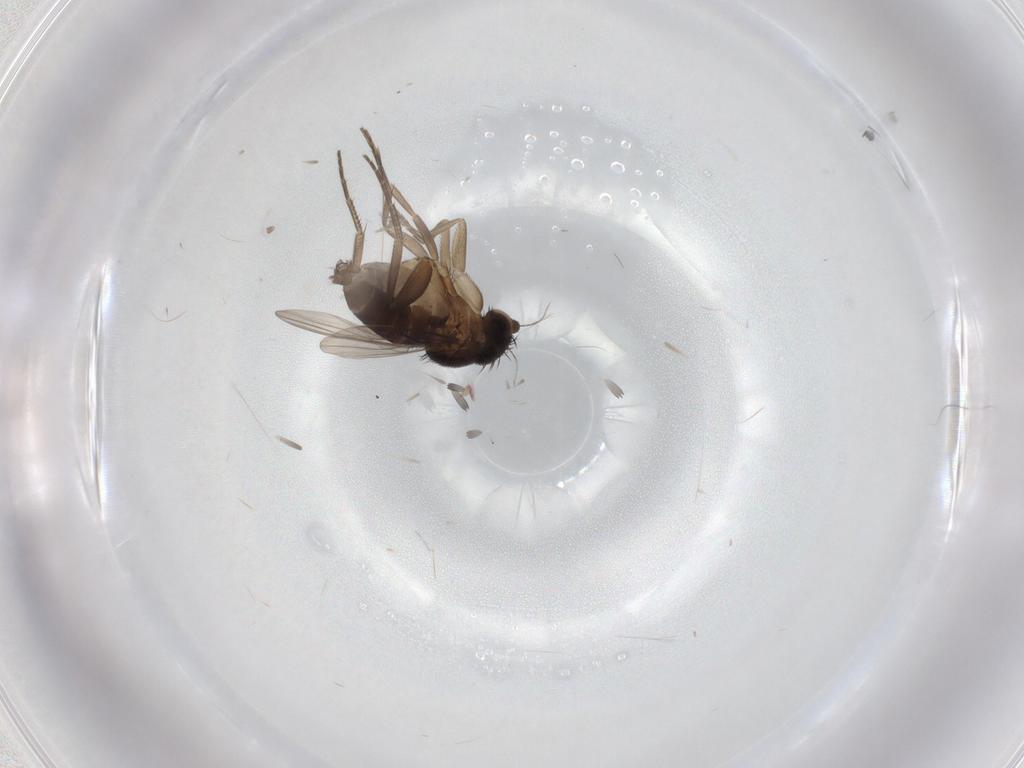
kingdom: Animalia
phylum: Arthropoda
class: Insecta
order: Diptera
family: Phoridae
